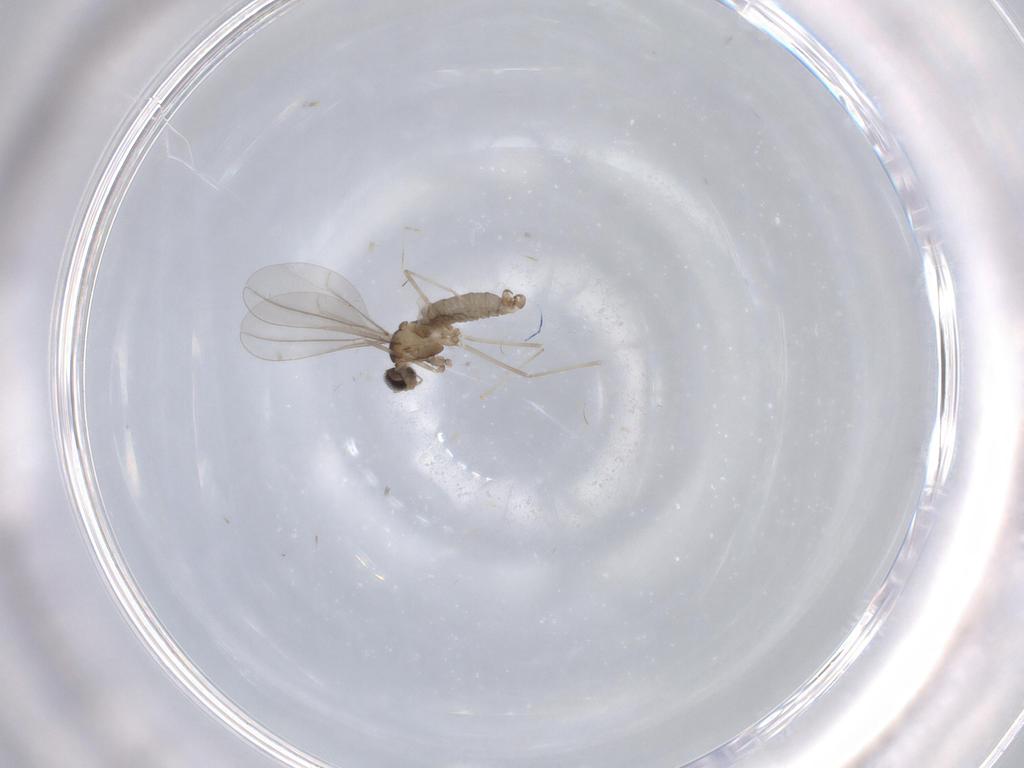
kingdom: Animalia
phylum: Arthropoda
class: Insecta
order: Diptera
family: Cecidomyiidae
